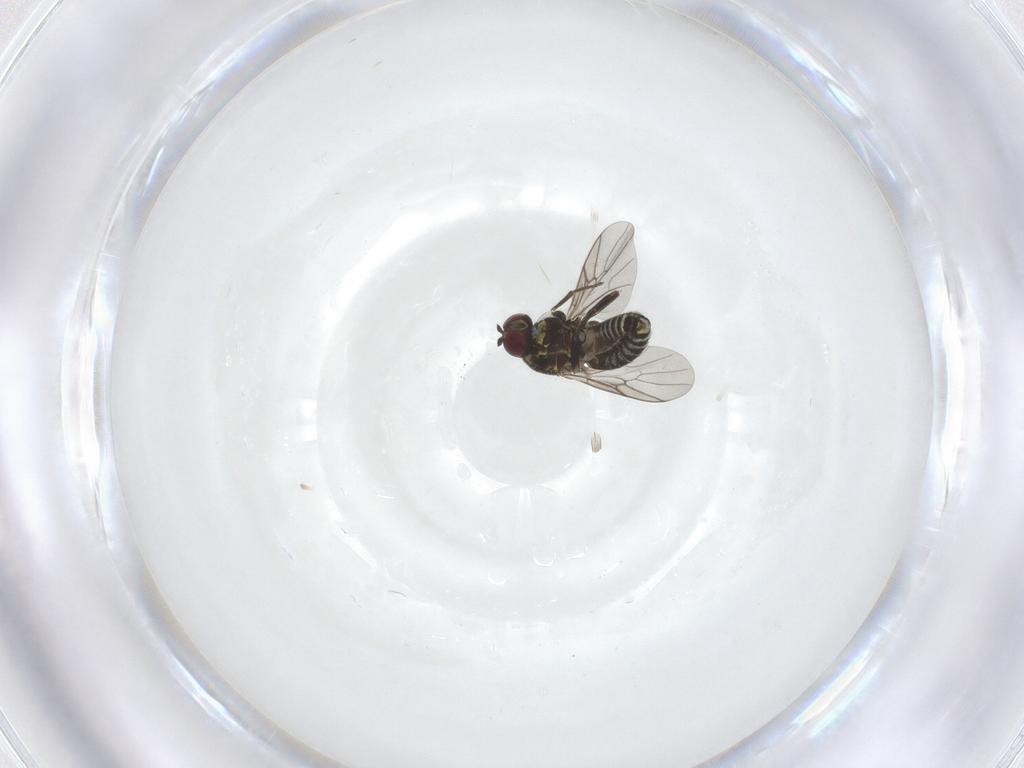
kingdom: Animalia
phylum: Arthropoda
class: Insecta
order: Diptera
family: Mythicomyiidae
